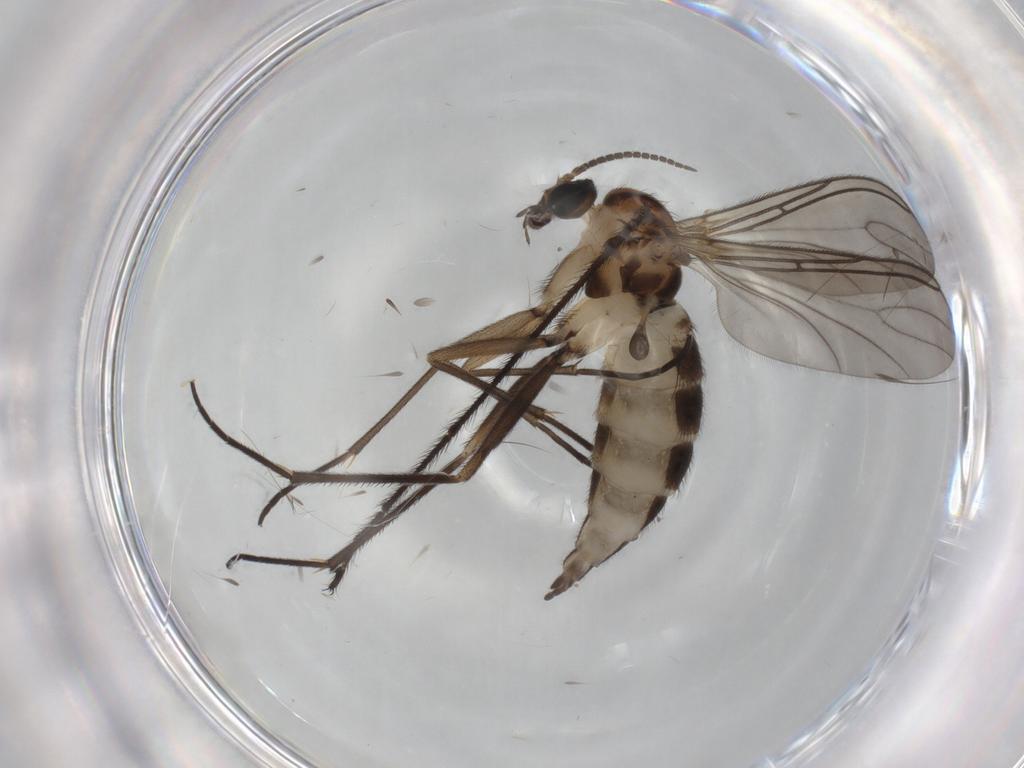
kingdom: Animalia
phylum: Arthropoda
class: Insecta
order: Diptera
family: Sciaridae
